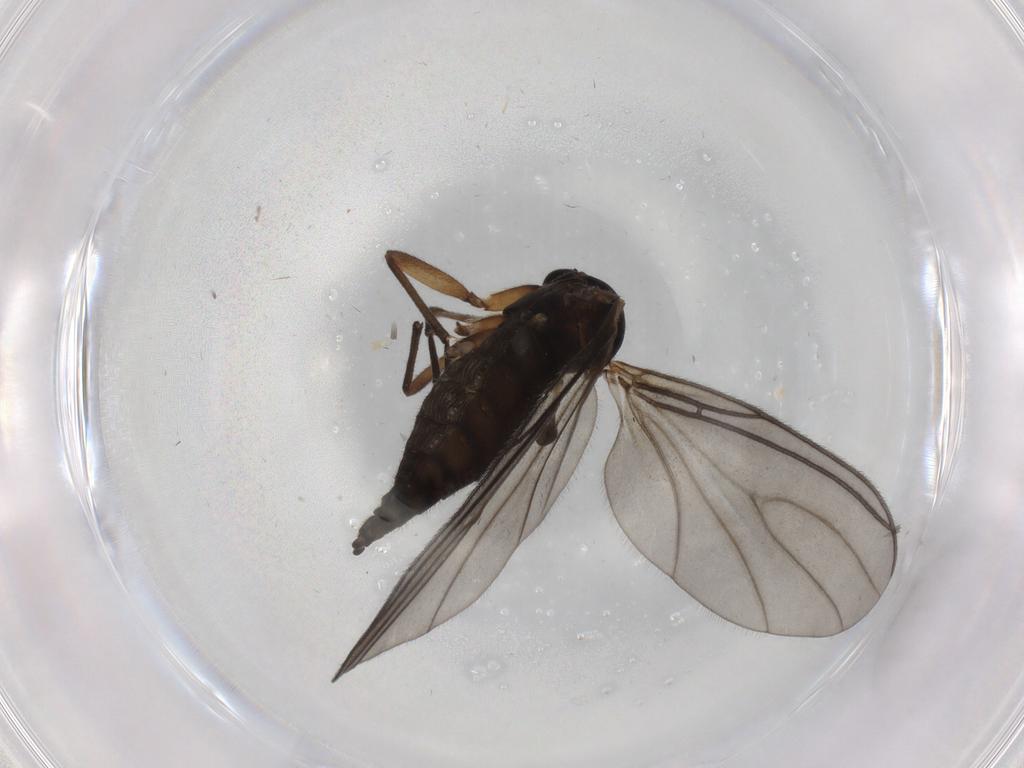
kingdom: Animalia
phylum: Arthropoda
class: Insecta
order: Diptera
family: Sciaridae
